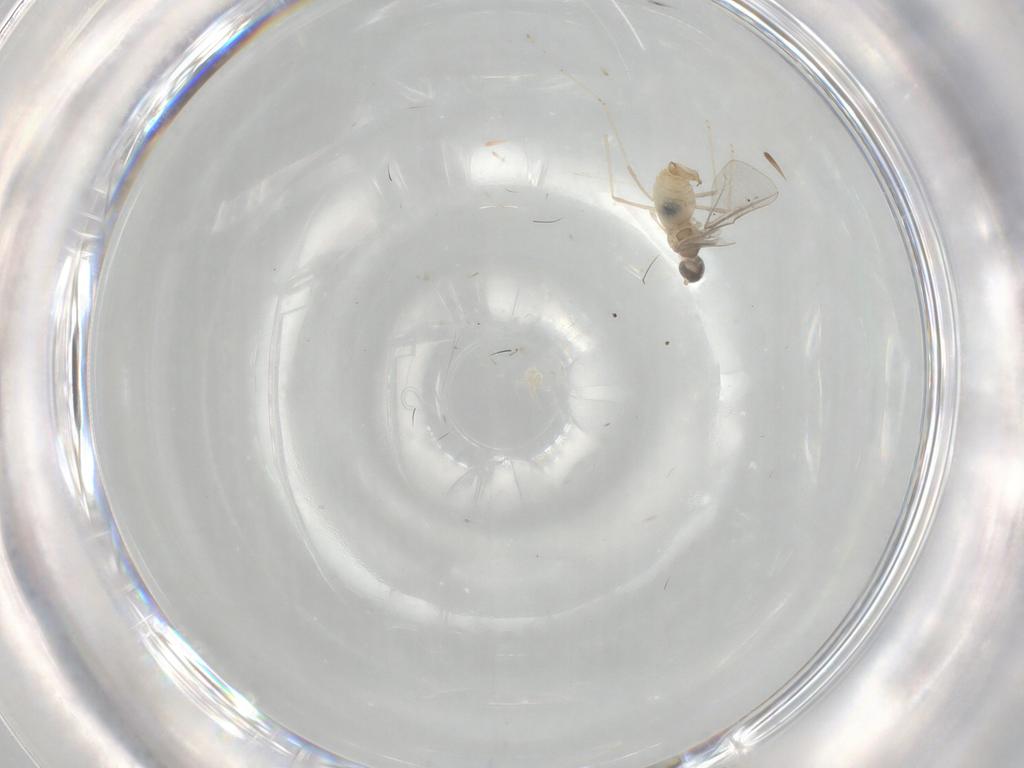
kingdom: Animalia
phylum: Arthropoda
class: Insecta
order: Diptera
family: Cecidomyiidae
